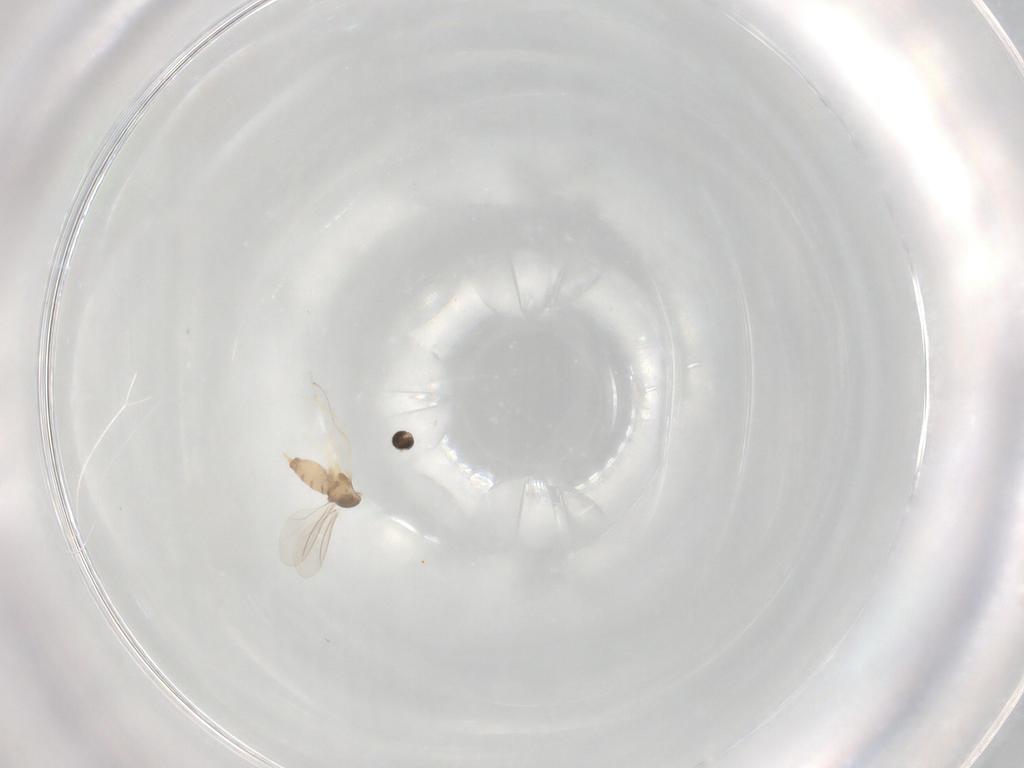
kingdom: Animalia
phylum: Arthropoda
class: Insecta
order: Diptera
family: Cecidomyiidae
